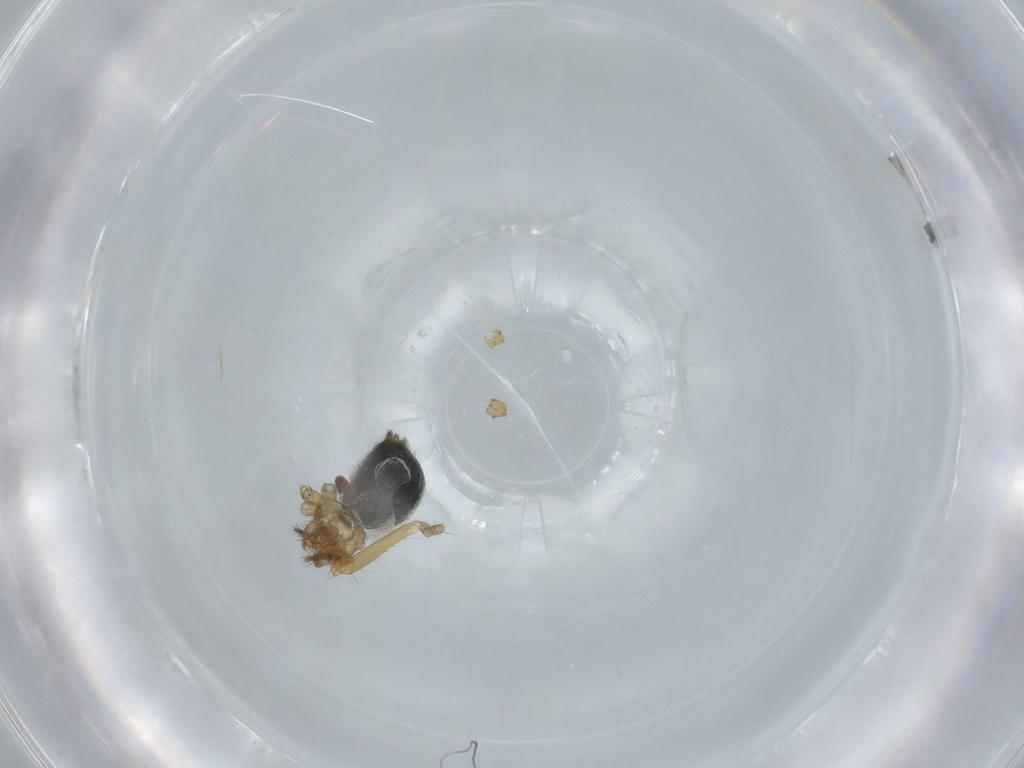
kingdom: Animalia
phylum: Arthropoda
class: Arachnida
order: Araneae
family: Linyphiidae
